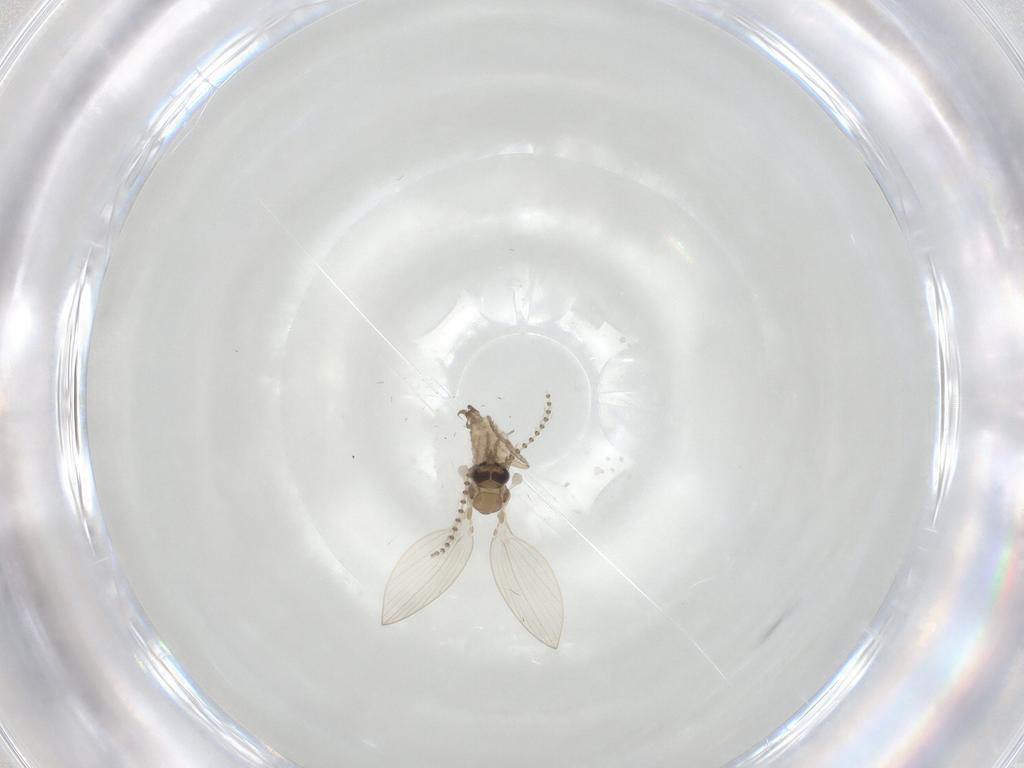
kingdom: Animalia
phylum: Arthropoda
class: Insecta
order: Diptera
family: Psychodidae
